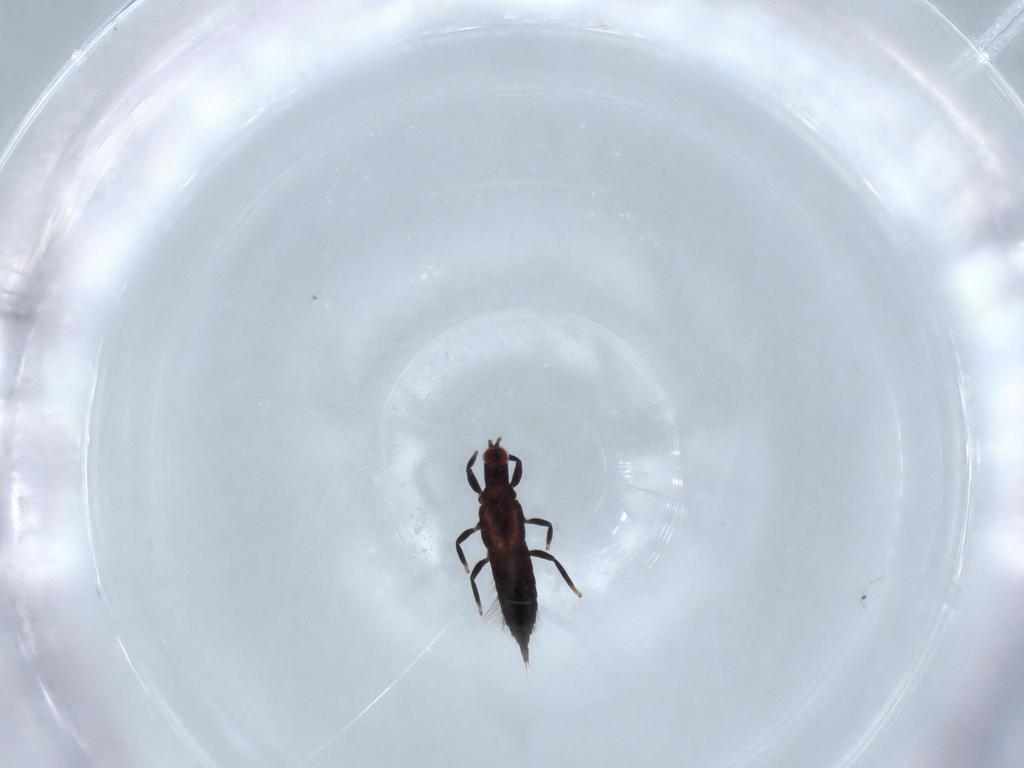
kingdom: Animalia
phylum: Arthropoda
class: Insecta
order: Thysanoptera
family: Phlaeothripidae
